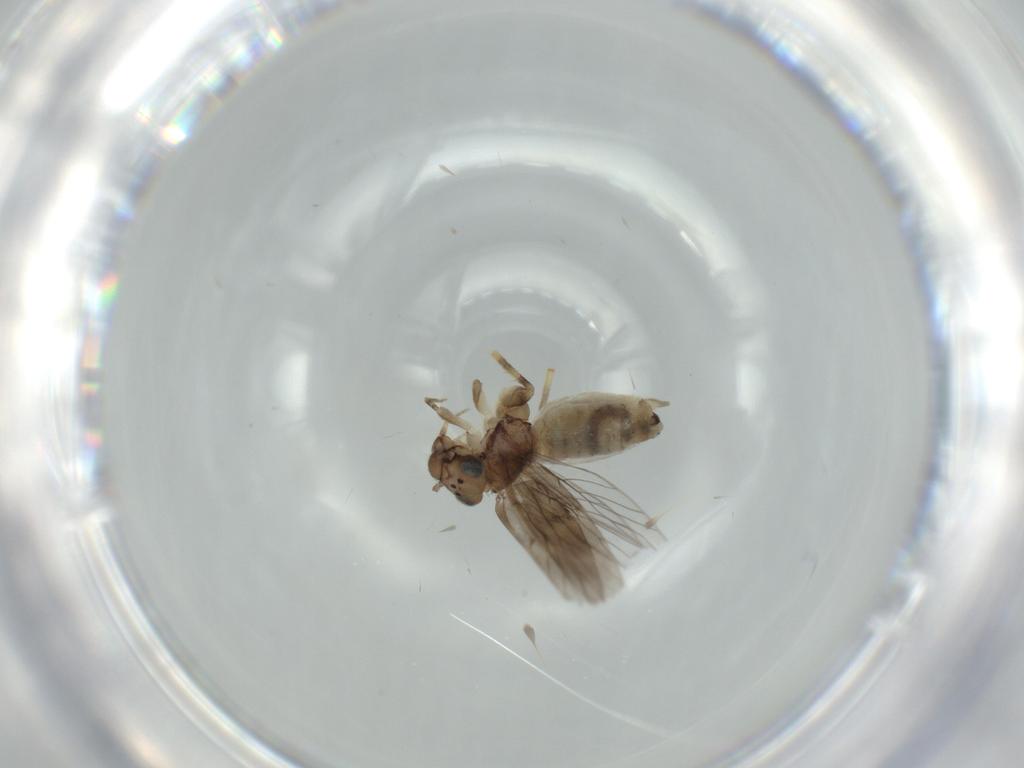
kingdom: Animalia
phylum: Arthropoda
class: Insecta
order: Psocodea
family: Lepidopsocidae
